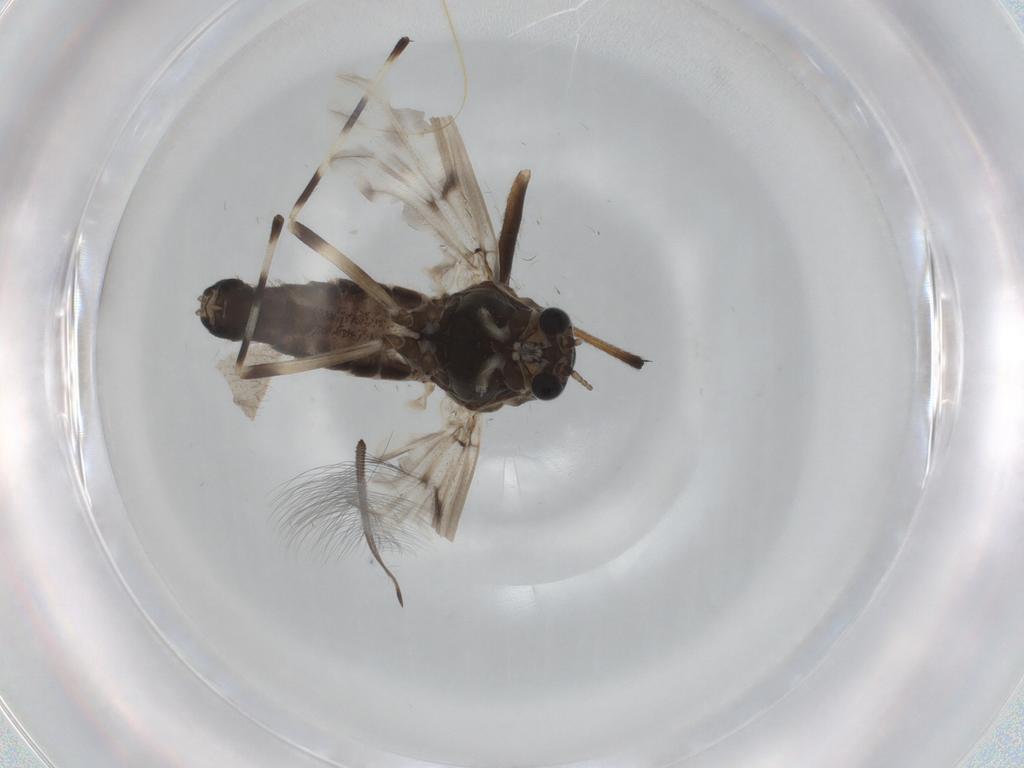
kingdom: Animalia
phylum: Arthropoda
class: Insecta
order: Diptera
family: Chironomidae
